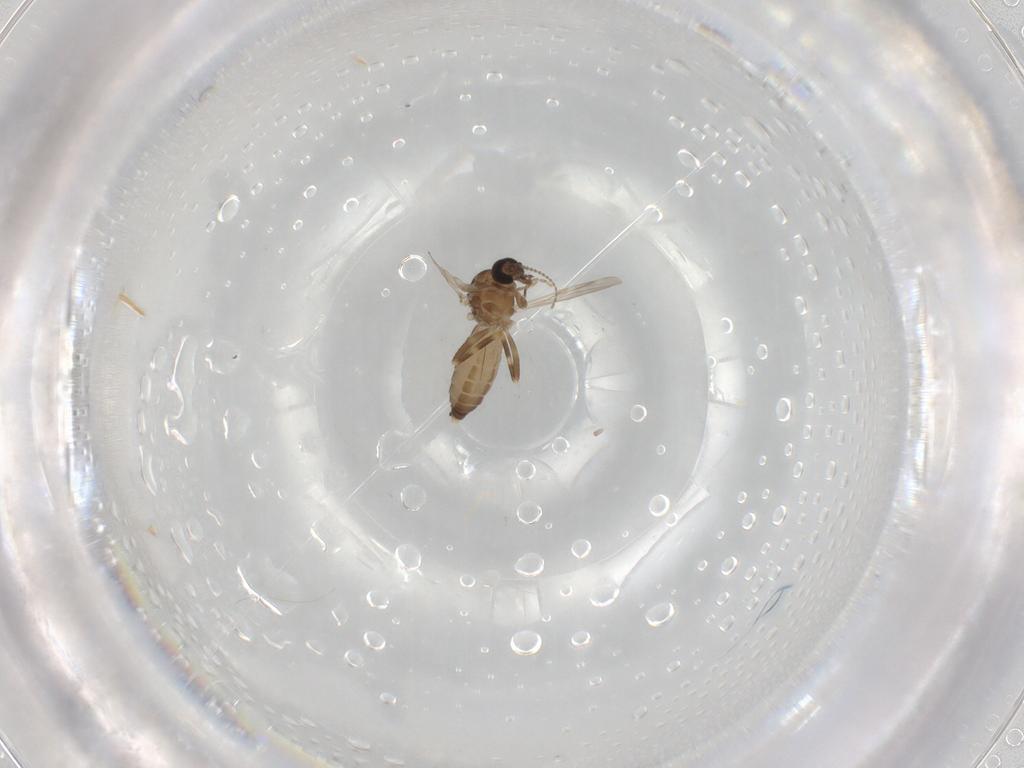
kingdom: Animalia
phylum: Arthropoda
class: Insecta
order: Diptera
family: Ceratopogonidae
